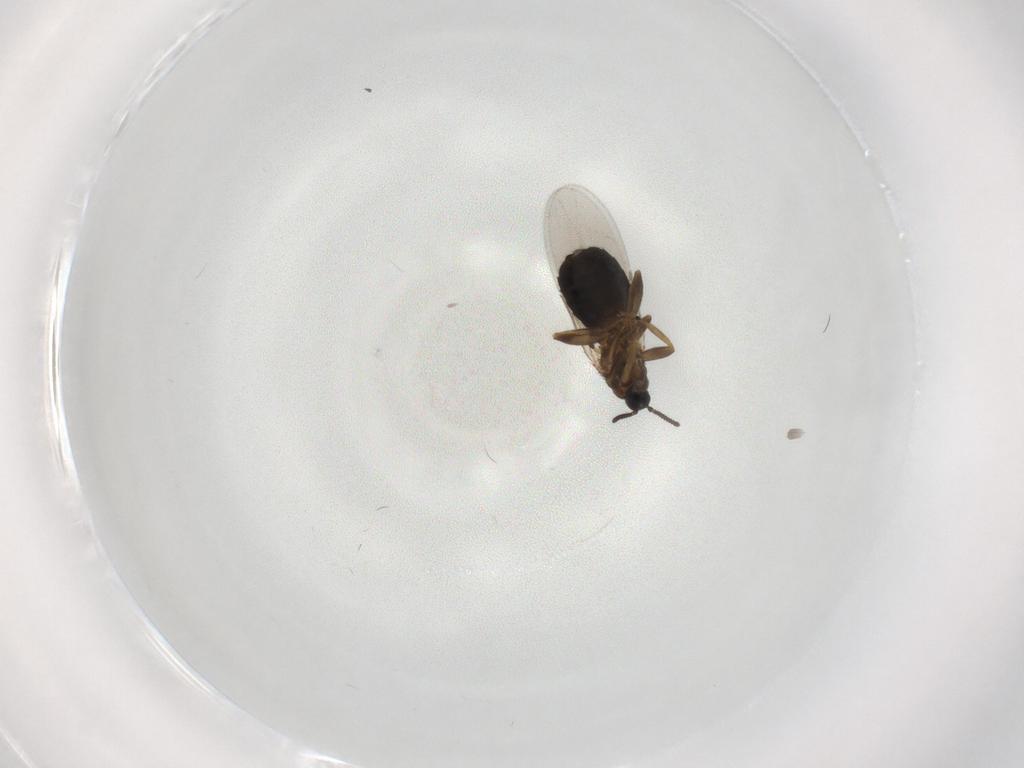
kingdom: Animalia
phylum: Arthropoda
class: Insecta
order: Diptera
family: Scatopsidae
